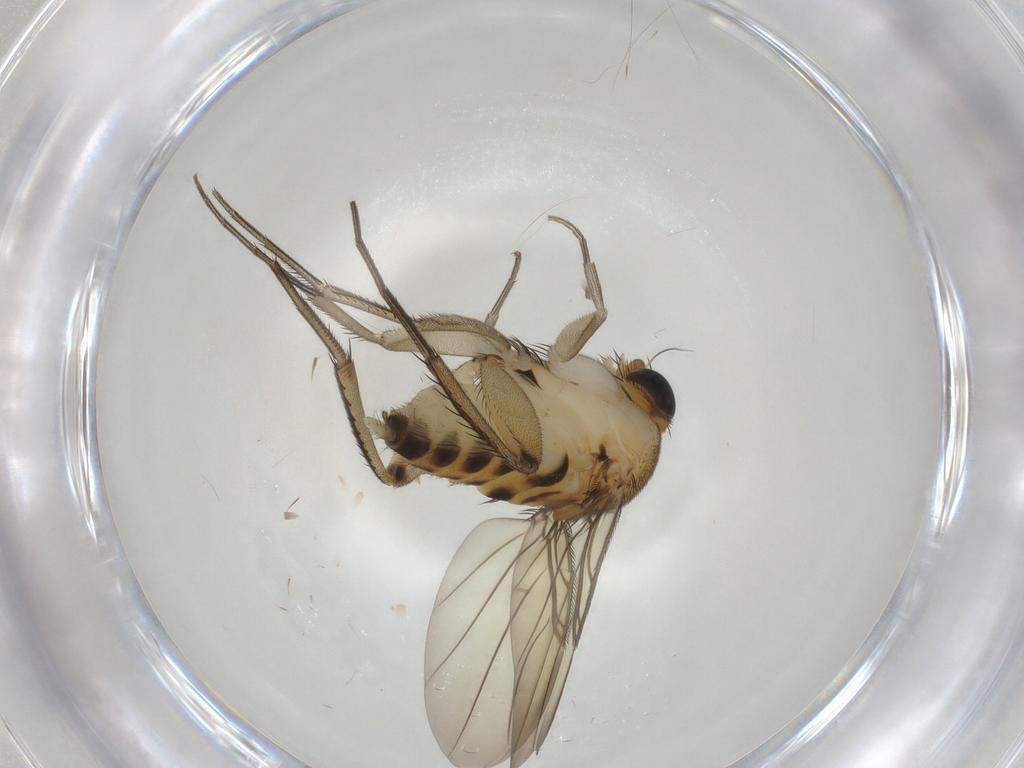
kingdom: Animalia
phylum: Arthropoda
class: Insecta
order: Diptera
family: Phoridae
